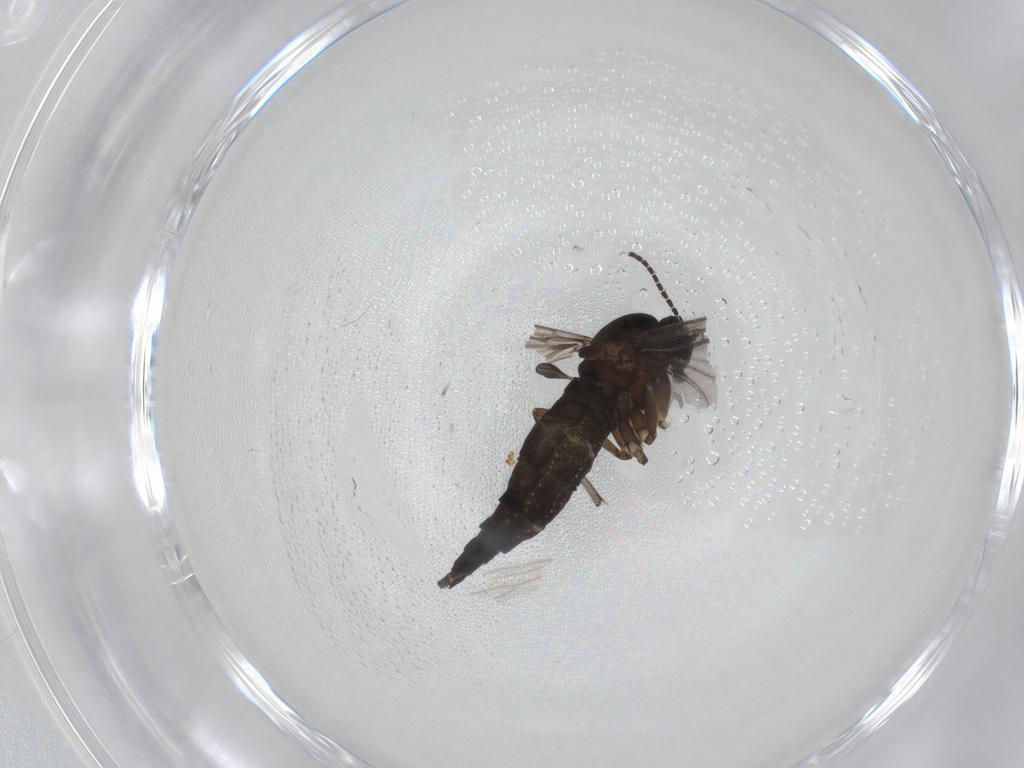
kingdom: Animalia
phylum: Arthropoda
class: Insecta
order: Diptera
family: Sciaridae
